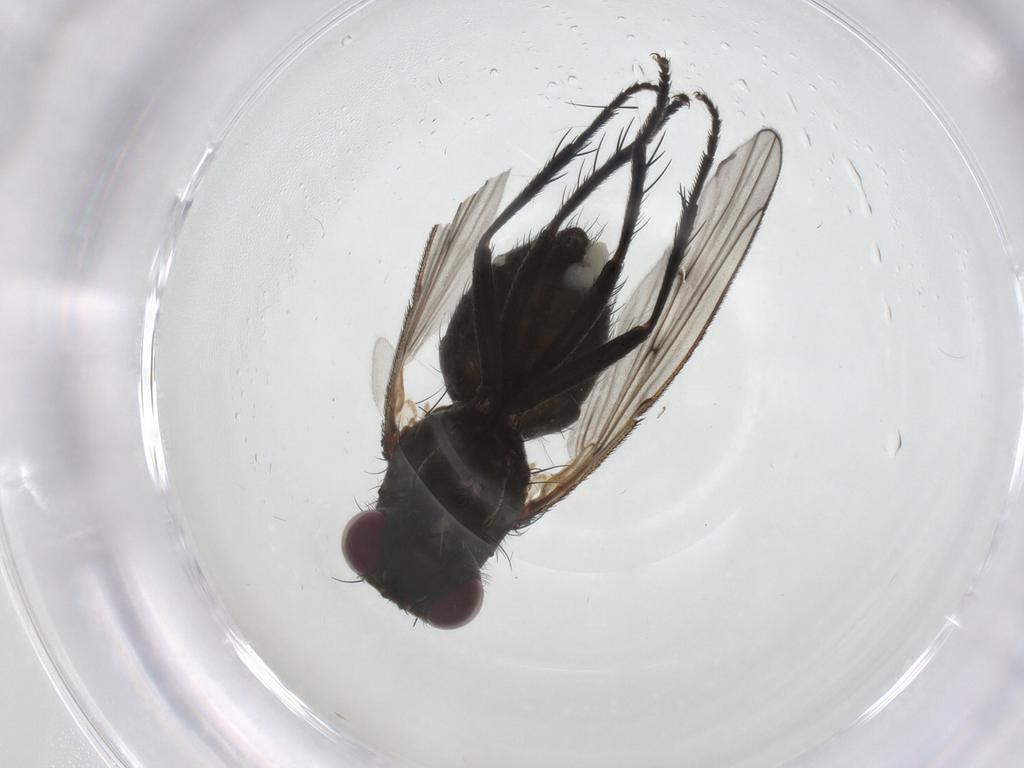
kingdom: Animalia
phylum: Arthropoda
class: Insecta
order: Diptera
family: Muscidae
